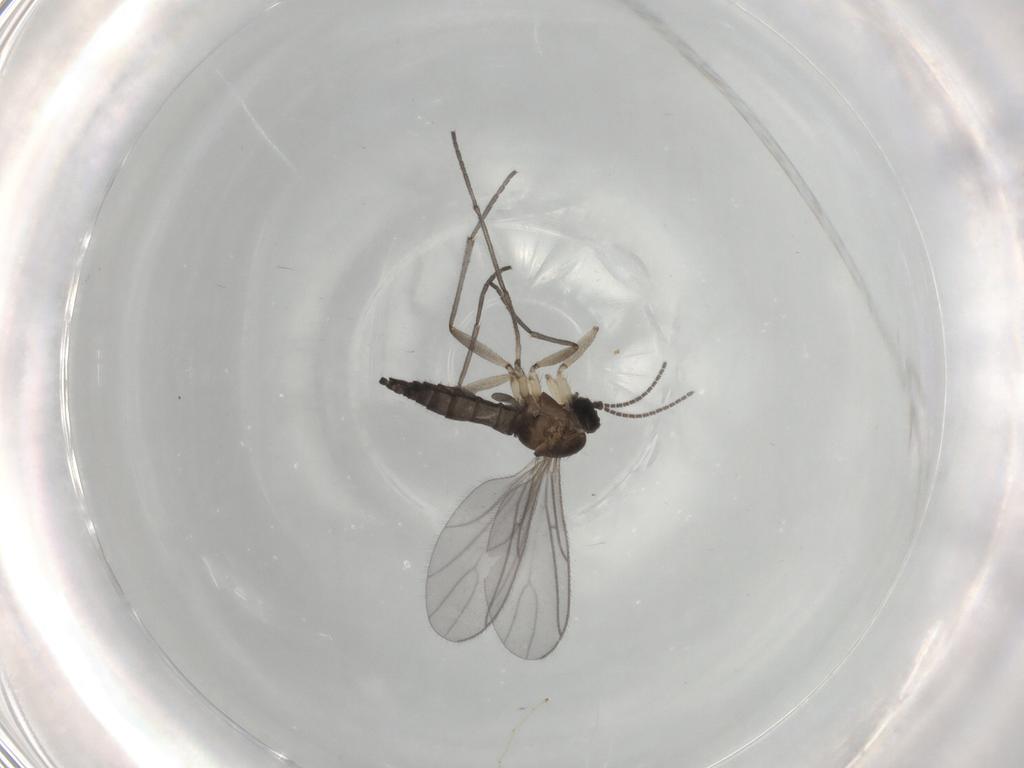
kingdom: Animalia
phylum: Arthropoda
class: Insecta
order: Diptera
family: Sciaridae
